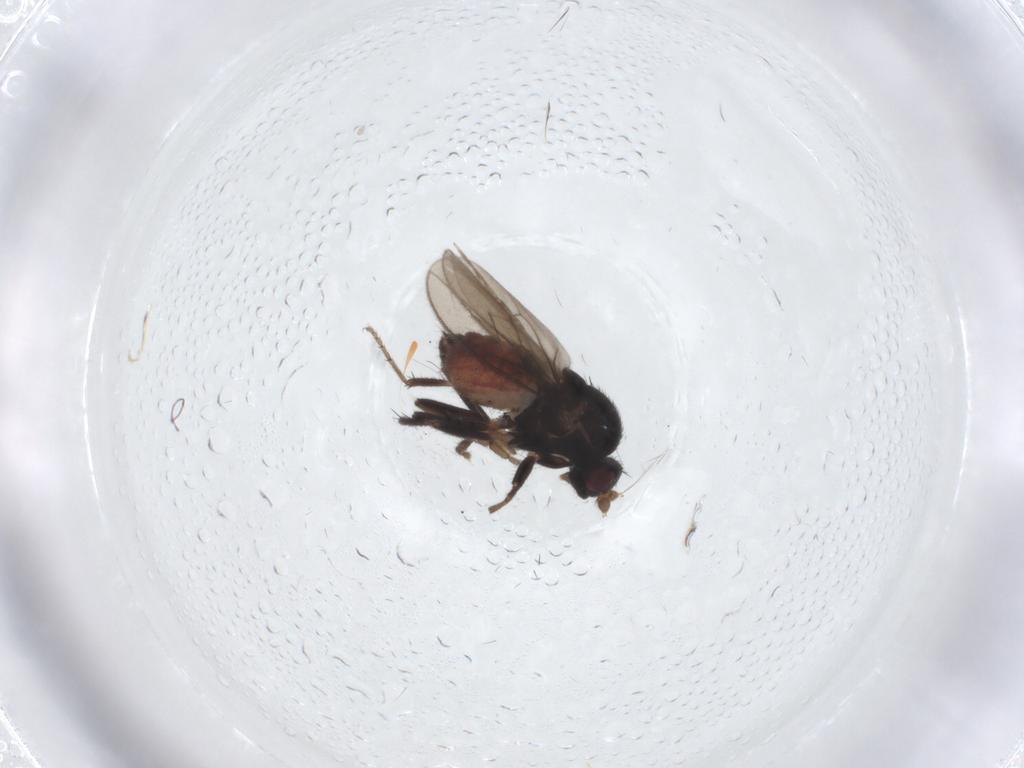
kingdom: Animalia
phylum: Arthropoda
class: Insecta
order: Diptera
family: Sphaeroceridae
